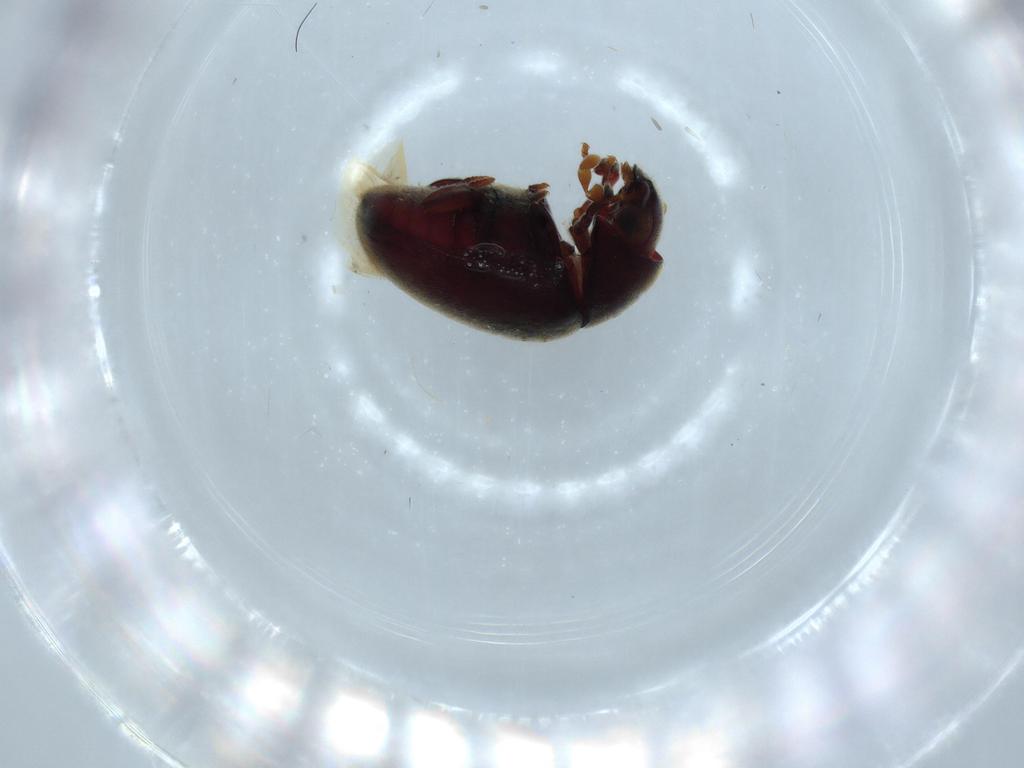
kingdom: Animalia
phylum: Arthropoda
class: Insecta
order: Coleoptera
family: Ptinidae
